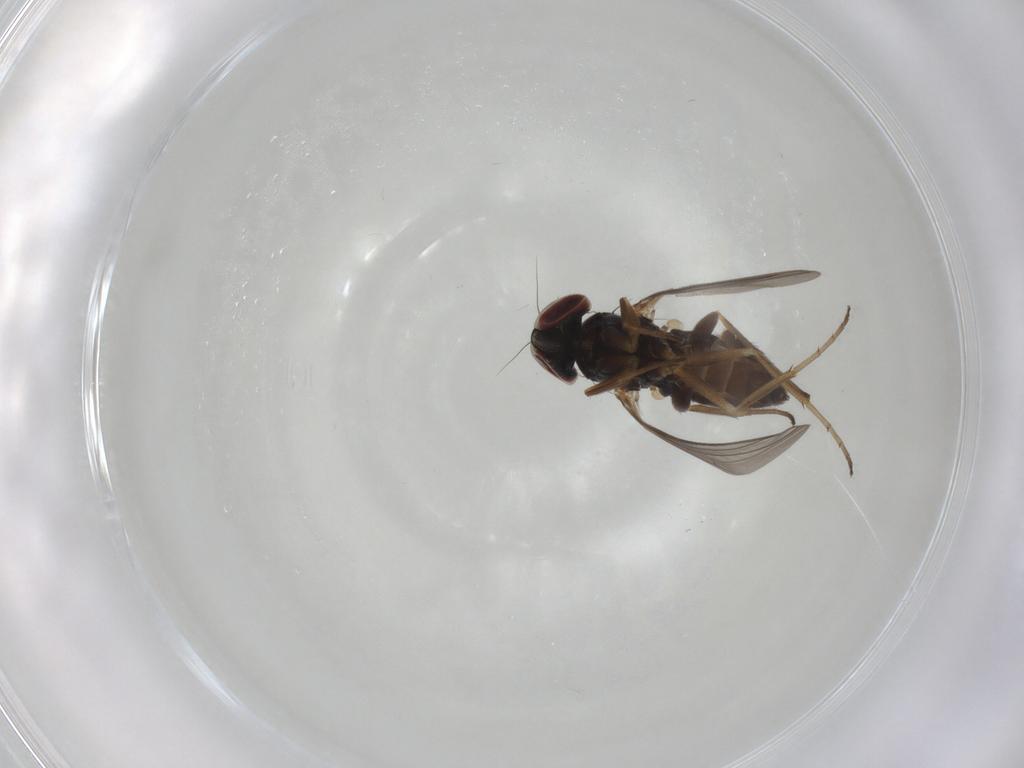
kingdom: Animalia
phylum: Arthropoda
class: Insecta
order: Diptera
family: Dolichopodidae
